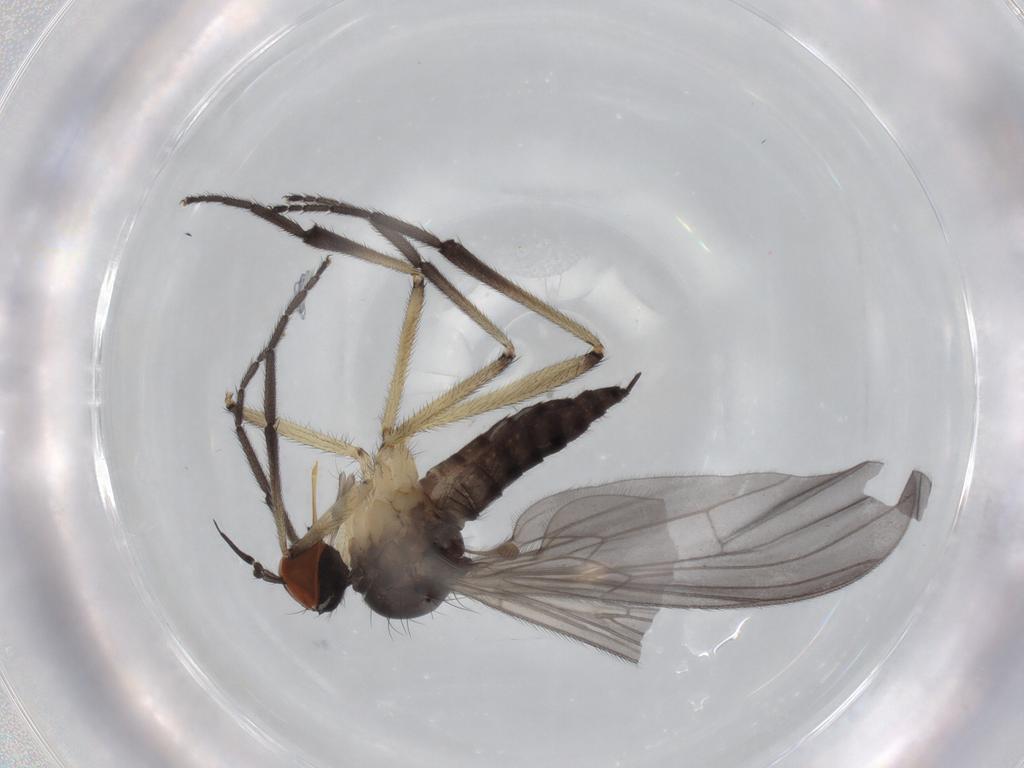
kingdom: Animalia
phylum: Arthropoda
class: Insecta
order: Diptera
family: Empididae
